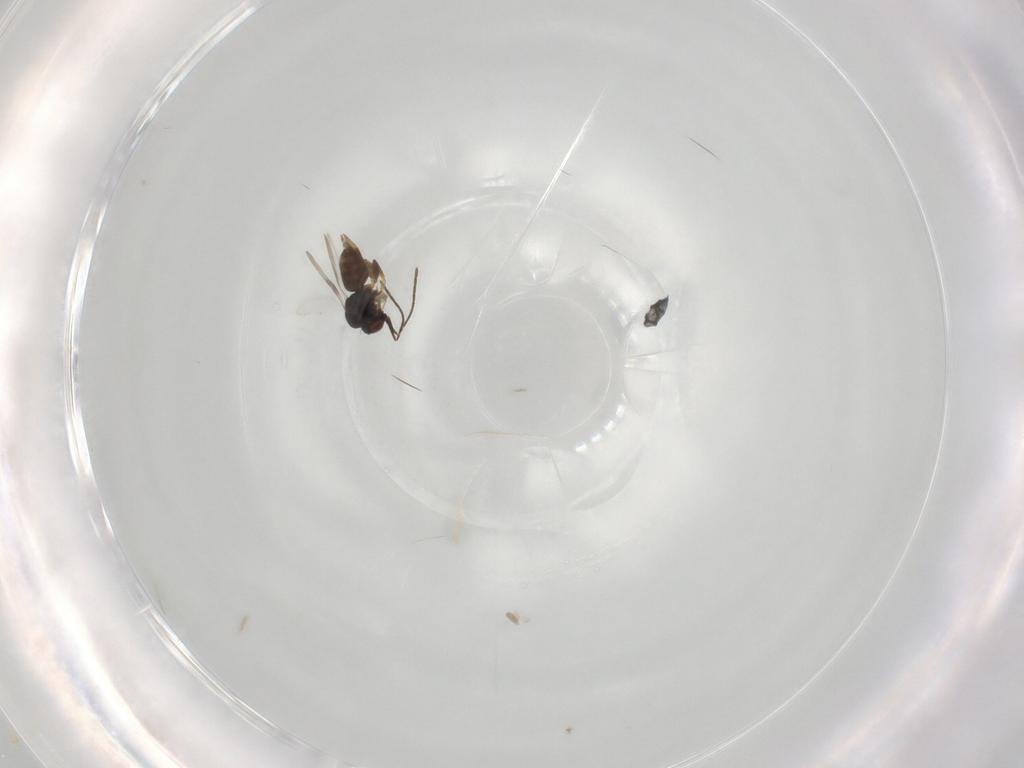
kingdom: Animalia
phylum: Arthropoda
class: Insecta
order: Hymenoptera
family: Ceraphronidae
